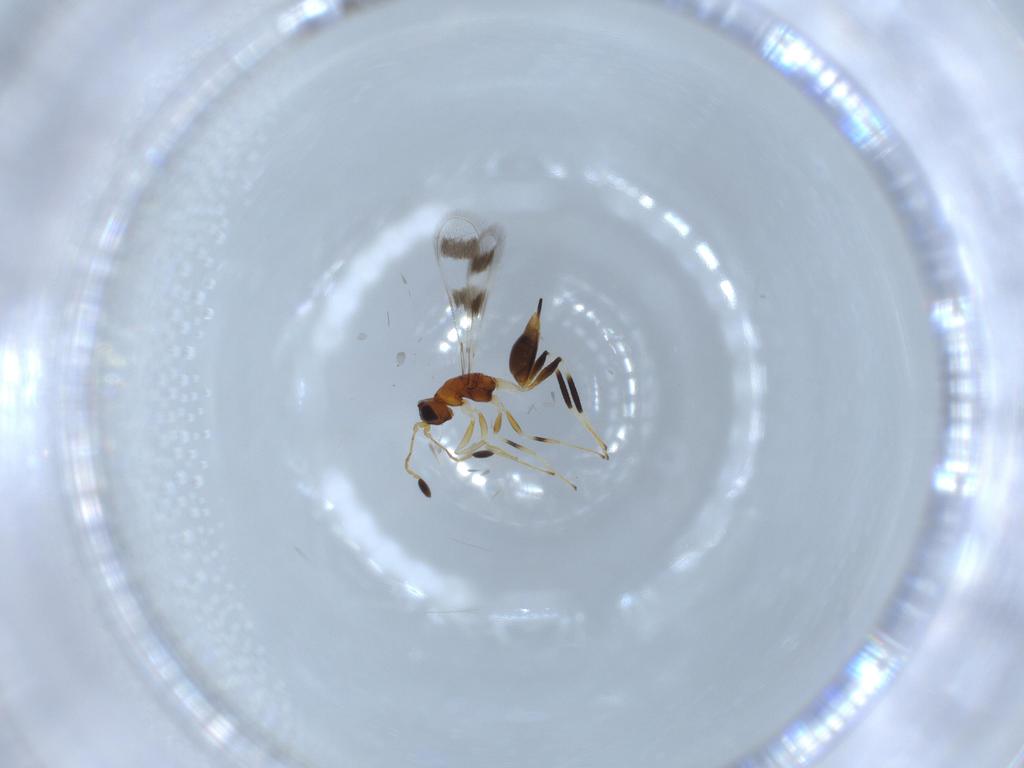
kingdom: Animalia
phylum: Arthropoda
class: Insecta
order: Hymenoptera
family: Mymaridae
